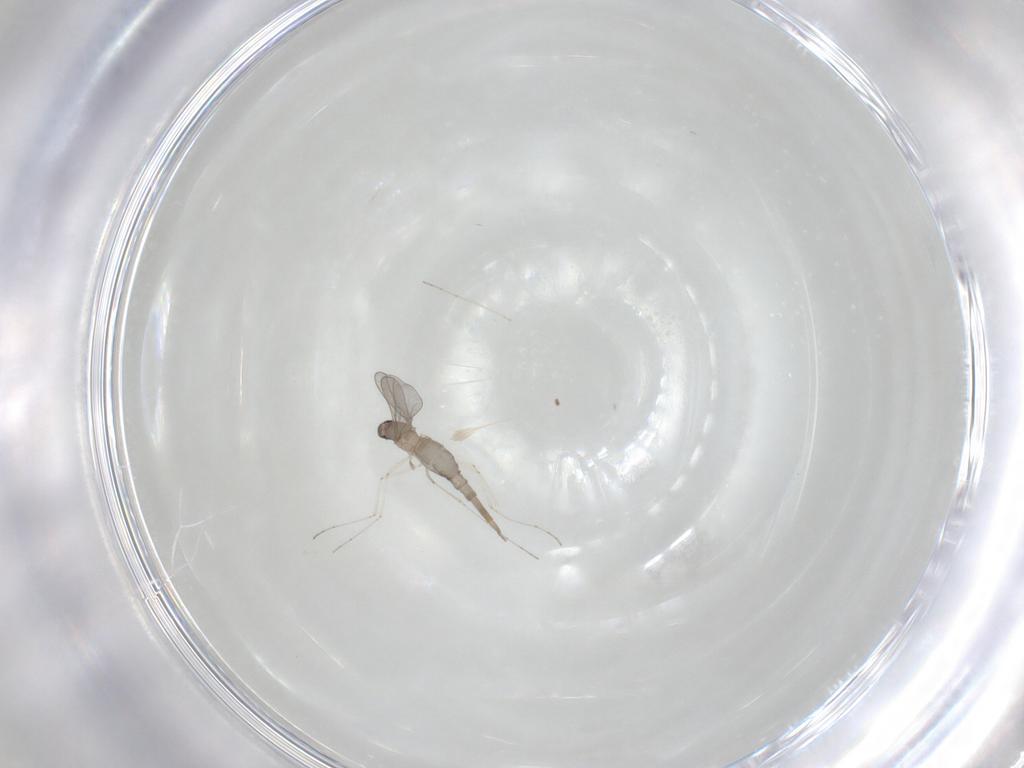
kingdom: Animalia
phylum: Arthropoda
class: Insecta
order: Diptera
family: Cecidomyiidae
